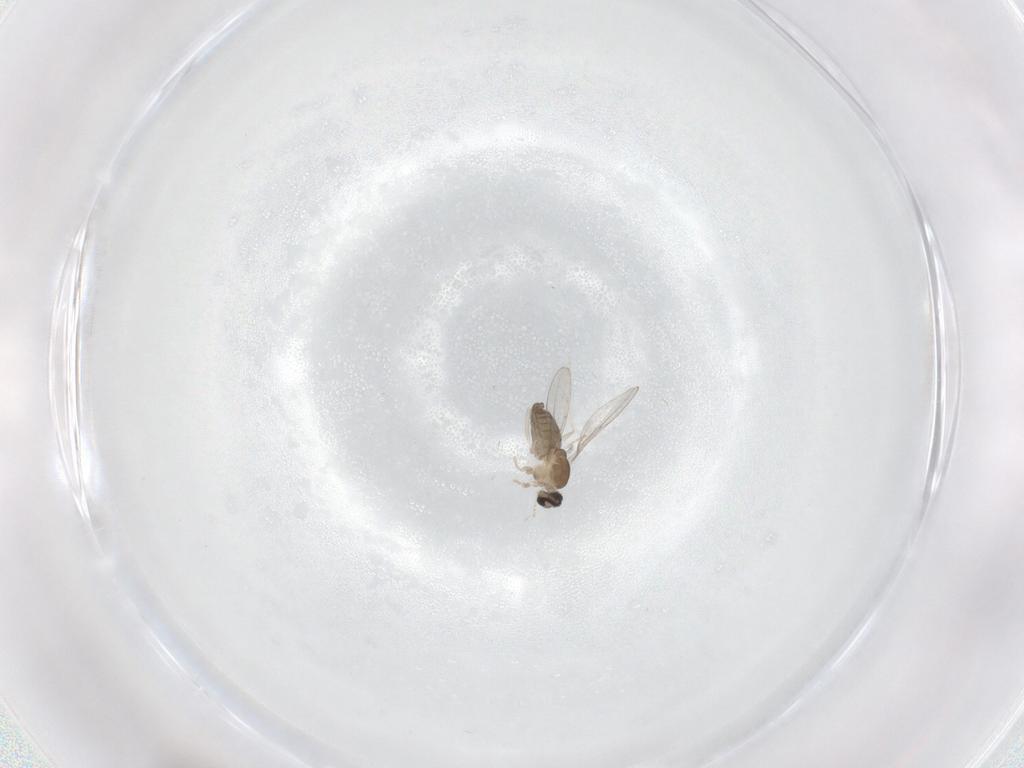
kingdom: Animalia
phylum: Arthropoda
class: Insecta
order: Diptera
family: Cecidomyiidae
